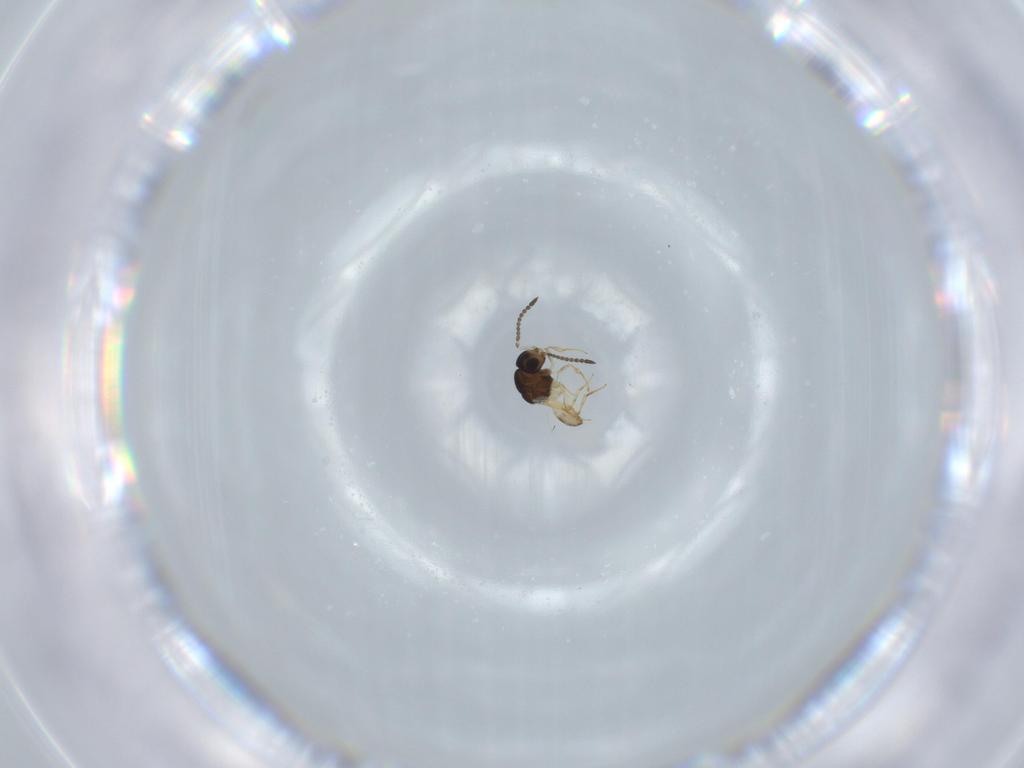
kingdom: Animalia
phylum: Arthropoda
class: Insecta
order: Hymenoptera
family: Scelionidae
